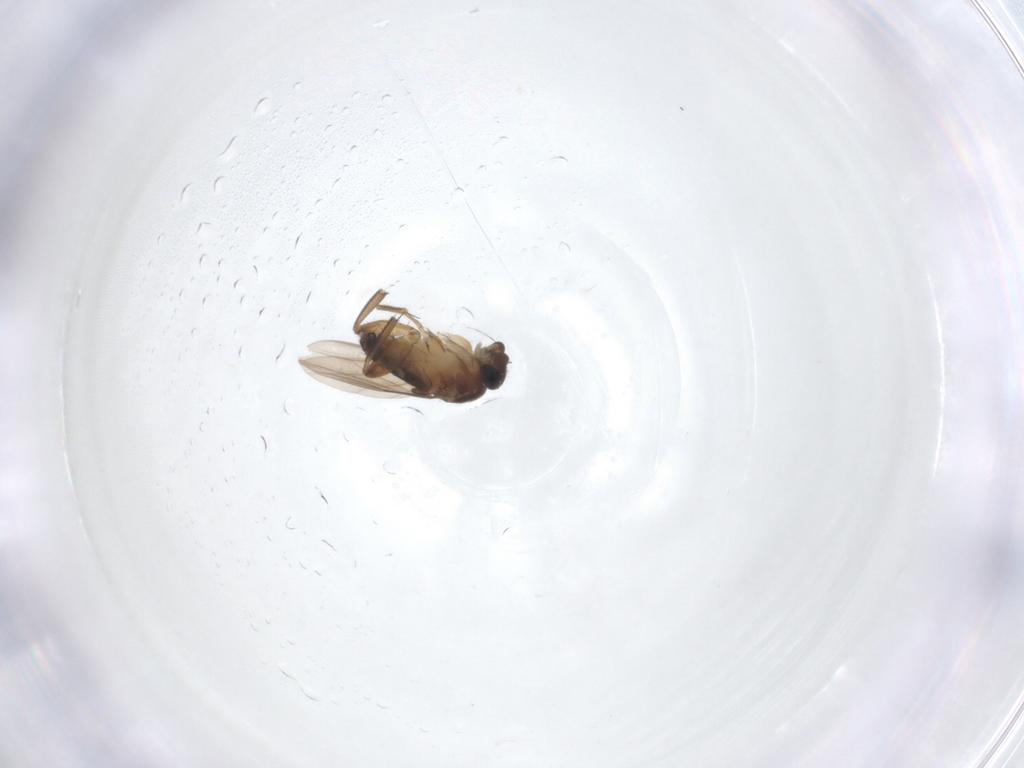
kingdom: Animalia
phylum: Arthropoda
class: Insecta
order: Diptera
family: Phoridae
